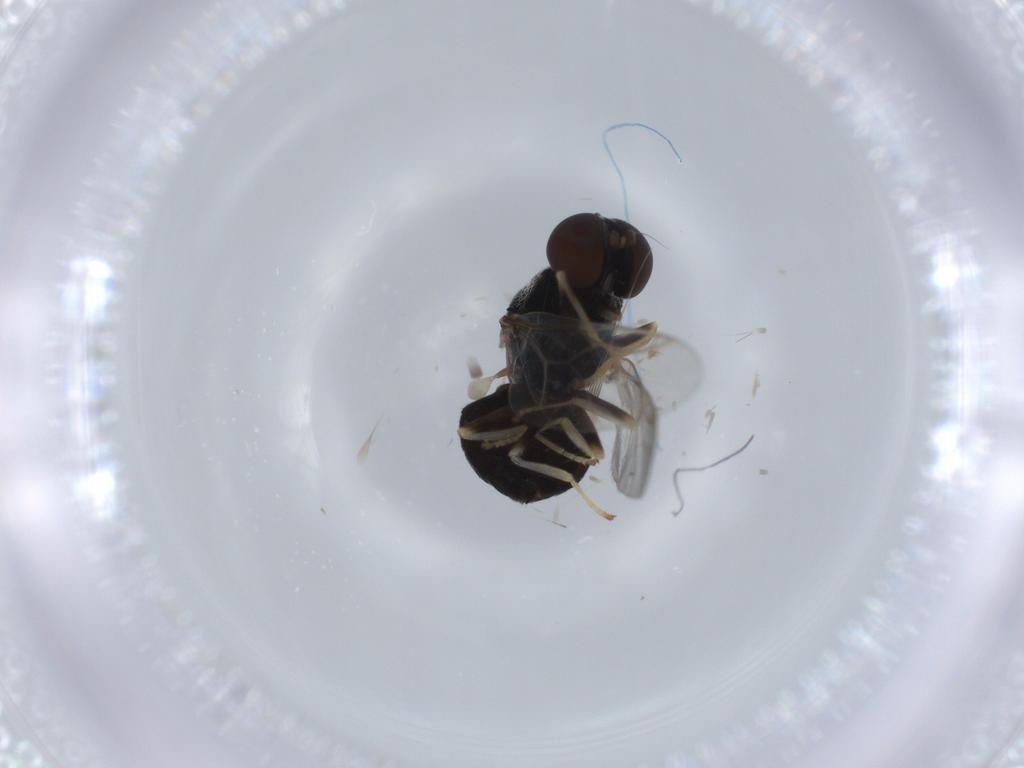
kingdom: Animalia
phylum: Arthropoda
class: Insecta
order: Diptera
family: Stratiomyidae
